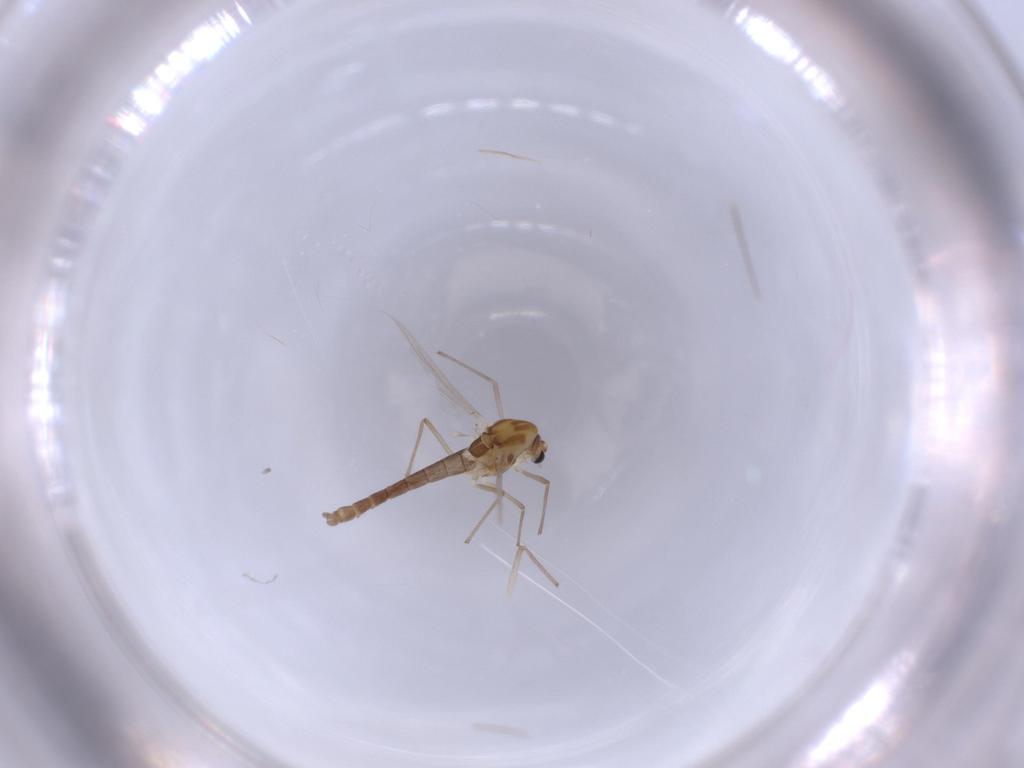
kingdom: Animalia
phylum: Arthropoda
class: Insecta
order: Diptera
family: Chironomidae
